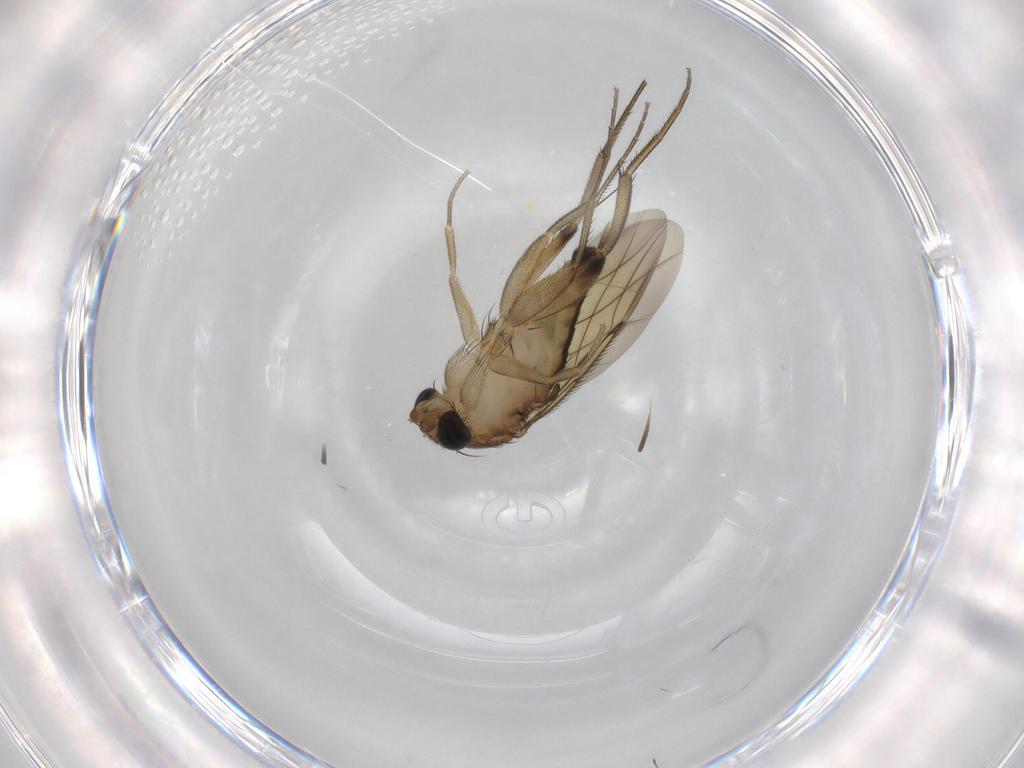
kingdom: Animalia
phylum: Arthropoda
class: Insecta
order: Diptera
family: Phoridae
